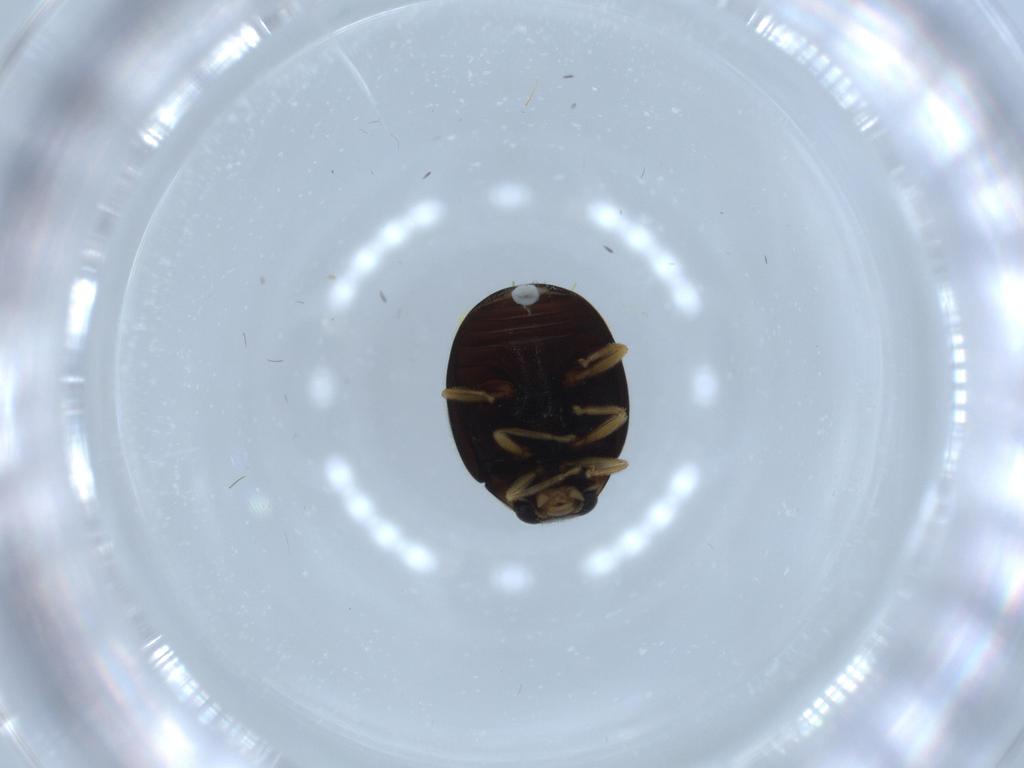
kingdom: Animalia
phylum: Arthropoda
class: Insecta
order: Coleoptera
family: Coccinellidae
